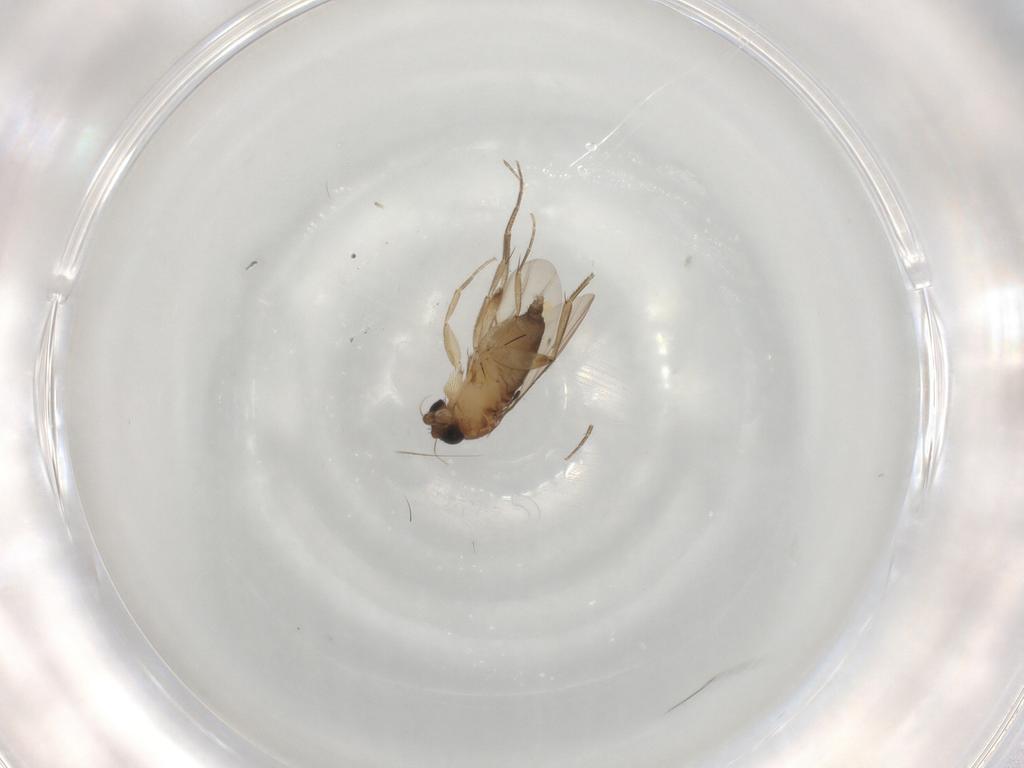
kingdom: Animalia
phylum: Arthropoda
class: Insecta
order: Diptera
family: Phoridae
